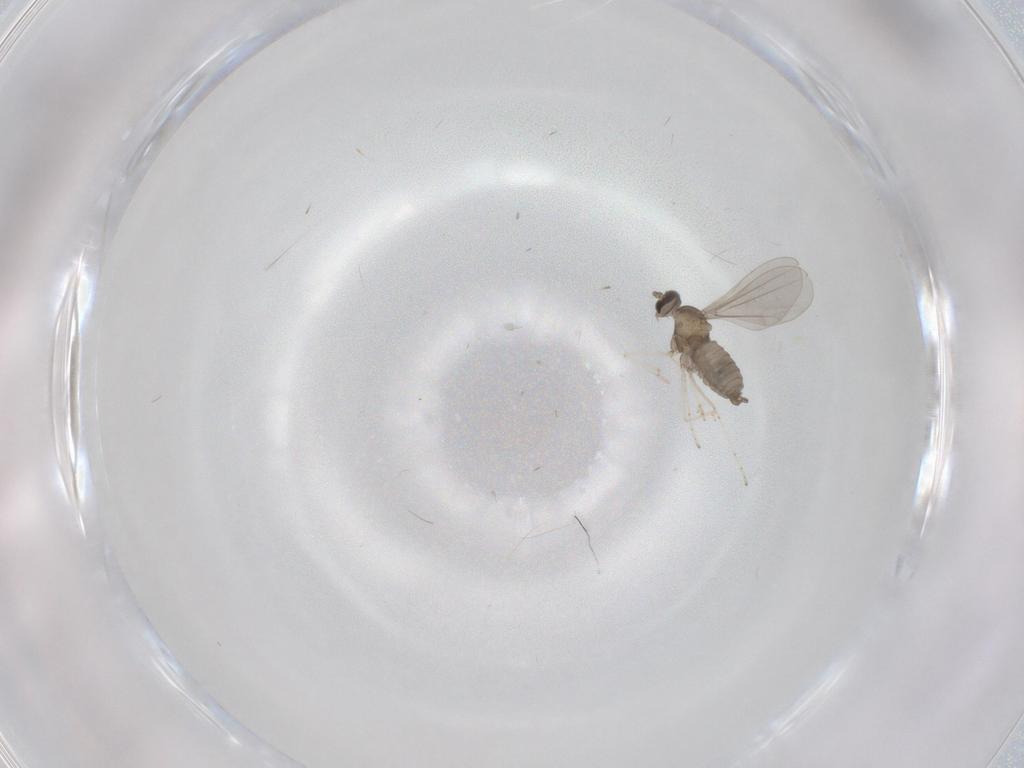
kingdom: Animalia
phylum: Arthropoda
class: Insecta
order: Diptera
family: Cecidomyiidae
